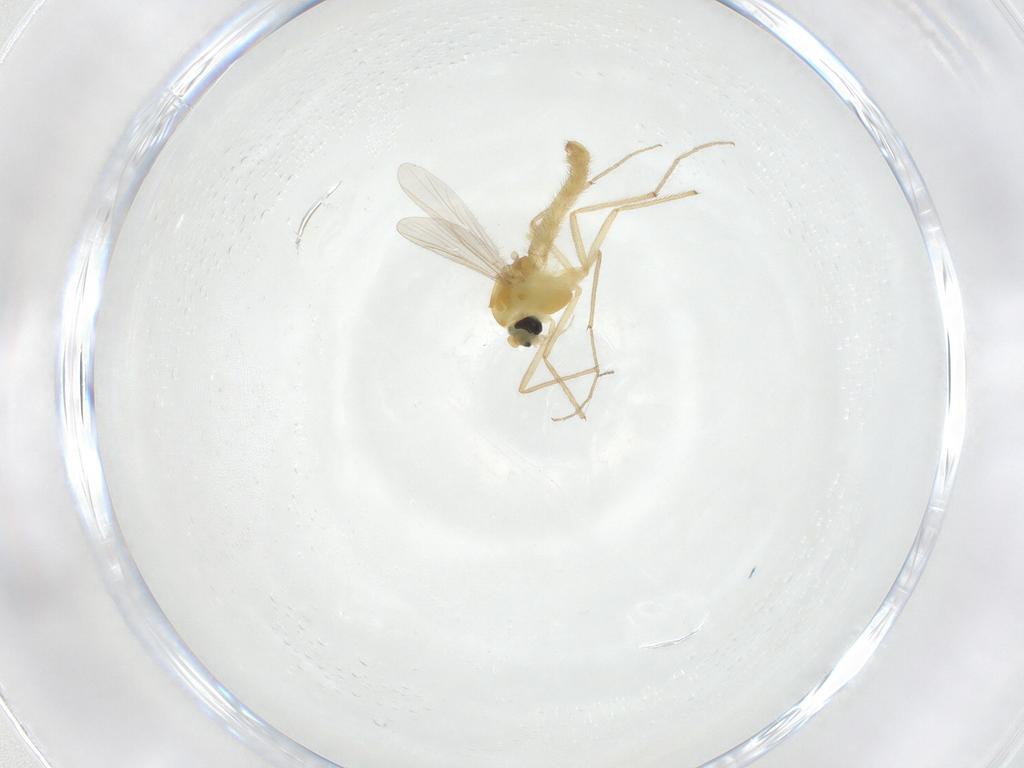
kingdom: Animalia
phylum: Arthropoda
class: Insecta
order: Diptera
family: Chironomidae
